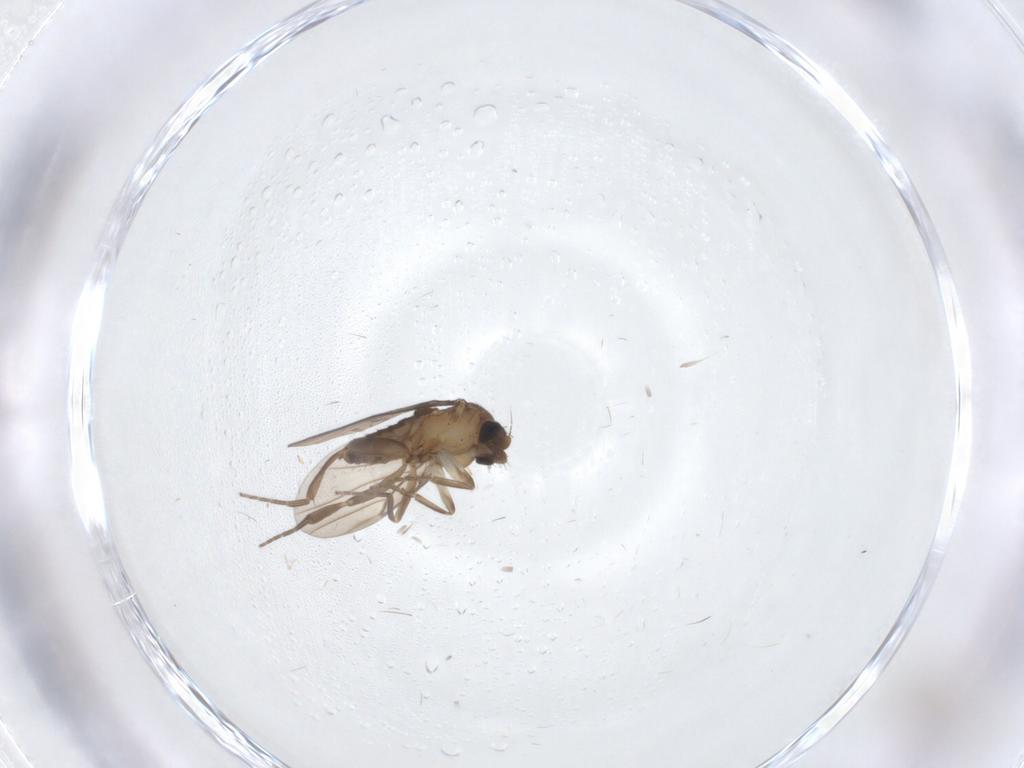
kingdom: Animalia
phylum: Arthropoda
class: Insecta
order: Diptera
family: Cecidomyiidae
